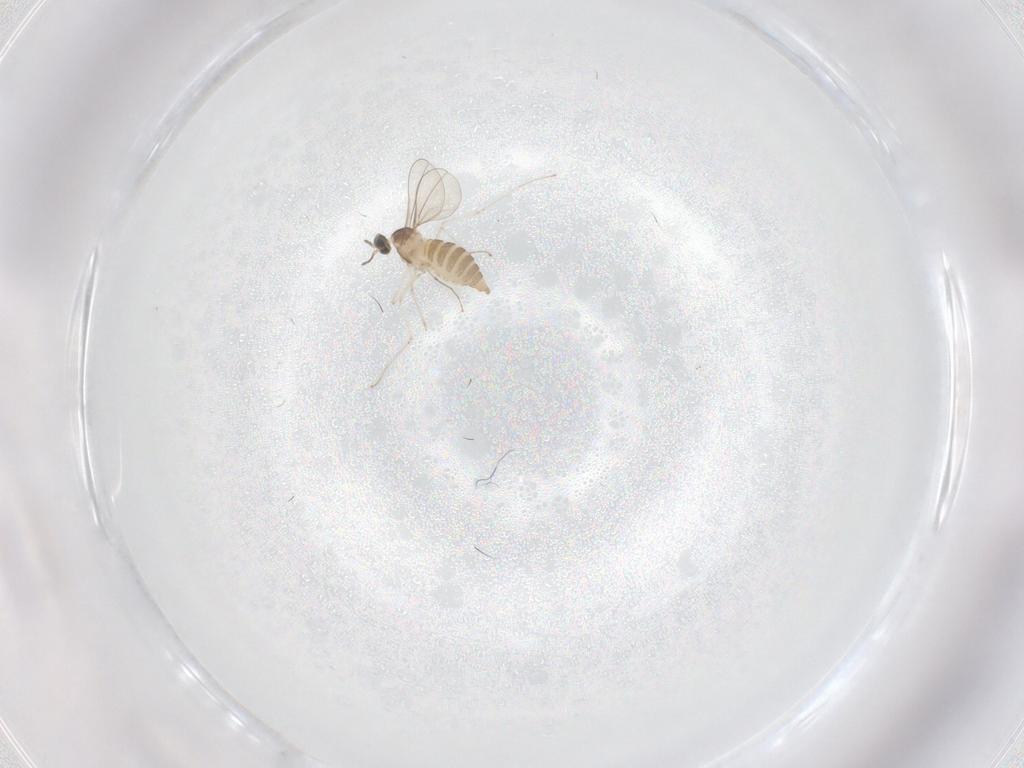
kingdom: Animalia
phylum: Arthropoda
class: Insecta
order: Diptera
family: Cecidomyiidae
